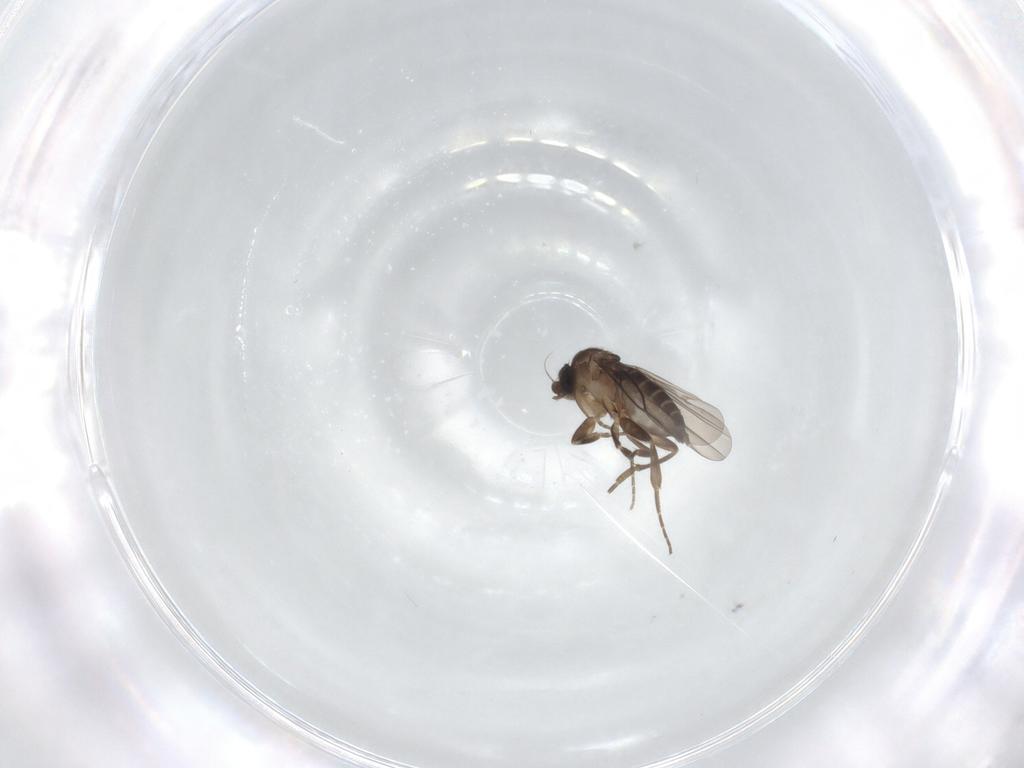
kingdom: Animalia
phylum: Arthropoda
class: Insecta
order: Diptera
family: Phoridae
